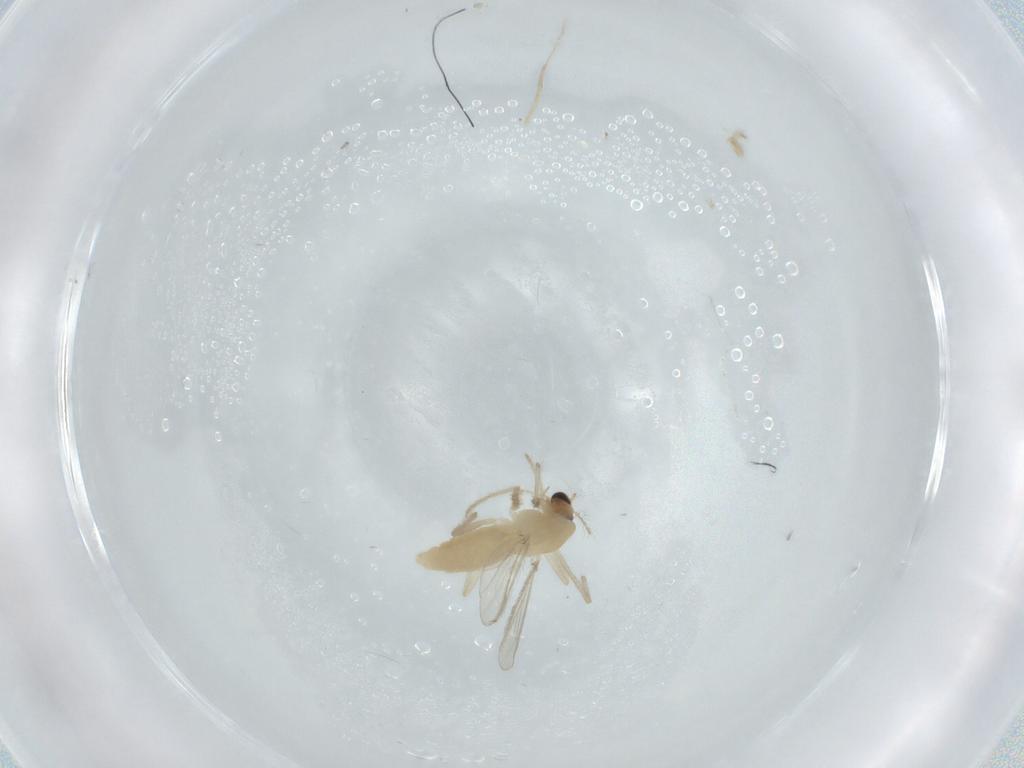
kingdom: Animalia
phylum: Arthropoda
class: Insecta
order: Diptera
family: Chironomidae
